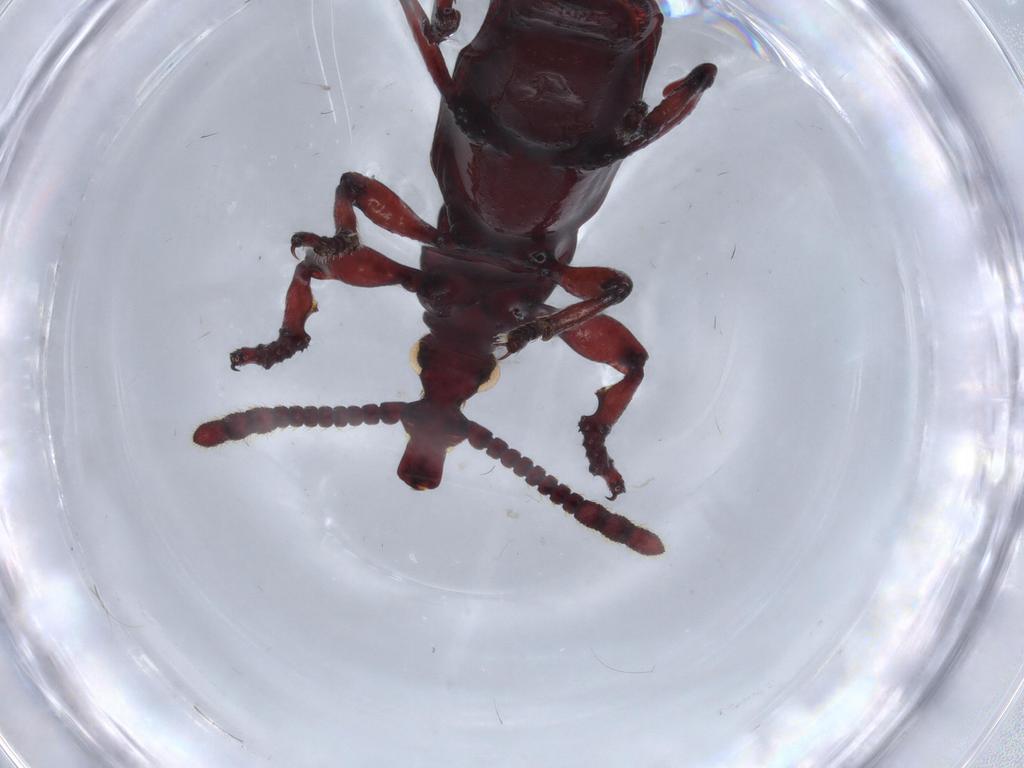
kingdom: Animalia
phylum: Arthropoda
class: Insecta
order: Coleoptera
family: Brentidae
